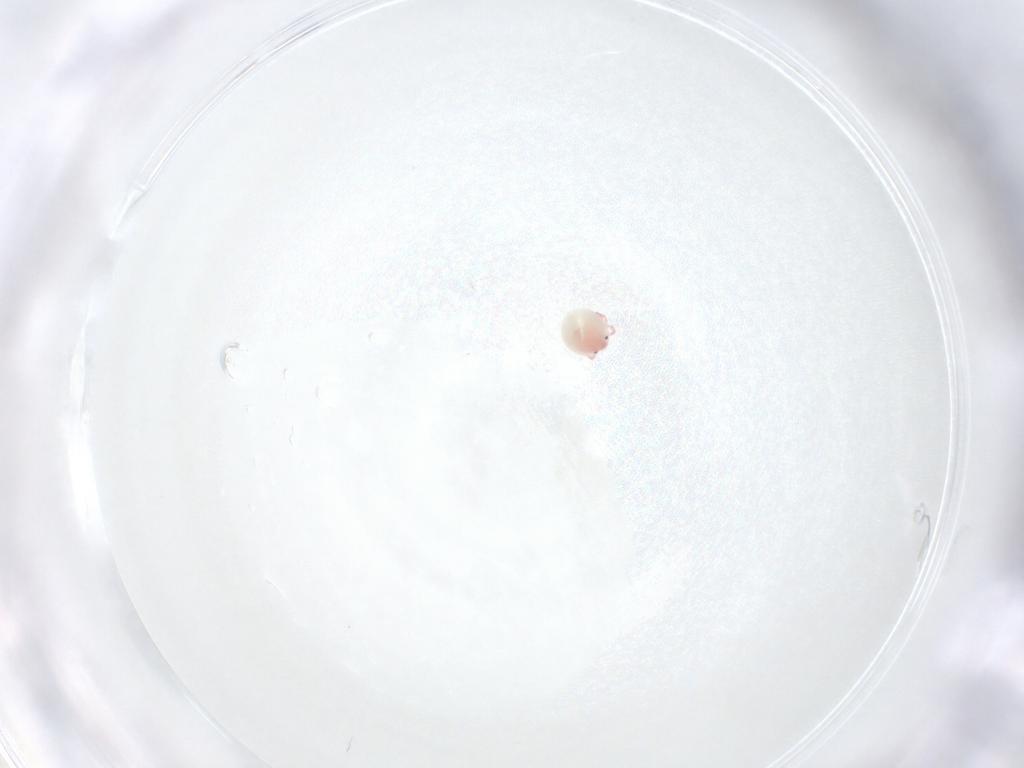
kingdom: Animalia
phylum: Arthropoda
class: Arachnida
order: Trombidiformes
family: Pionidae
